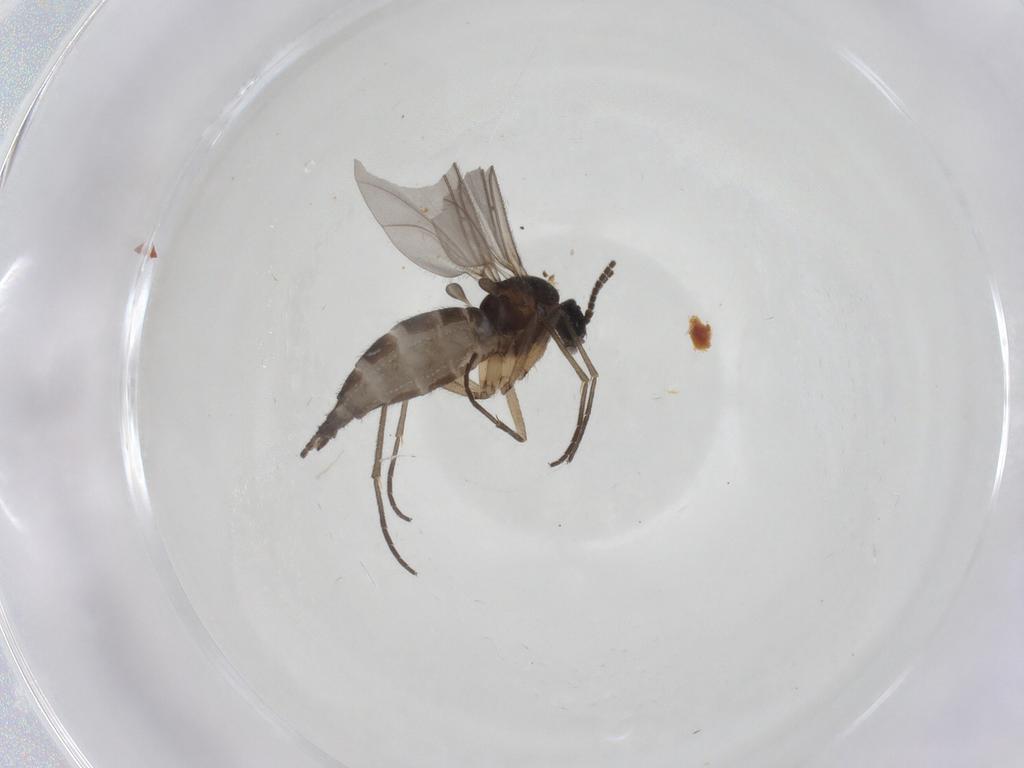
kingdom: Animalia
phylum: Arthropoda
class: Insecta
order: Diptera
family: Sciaridae
